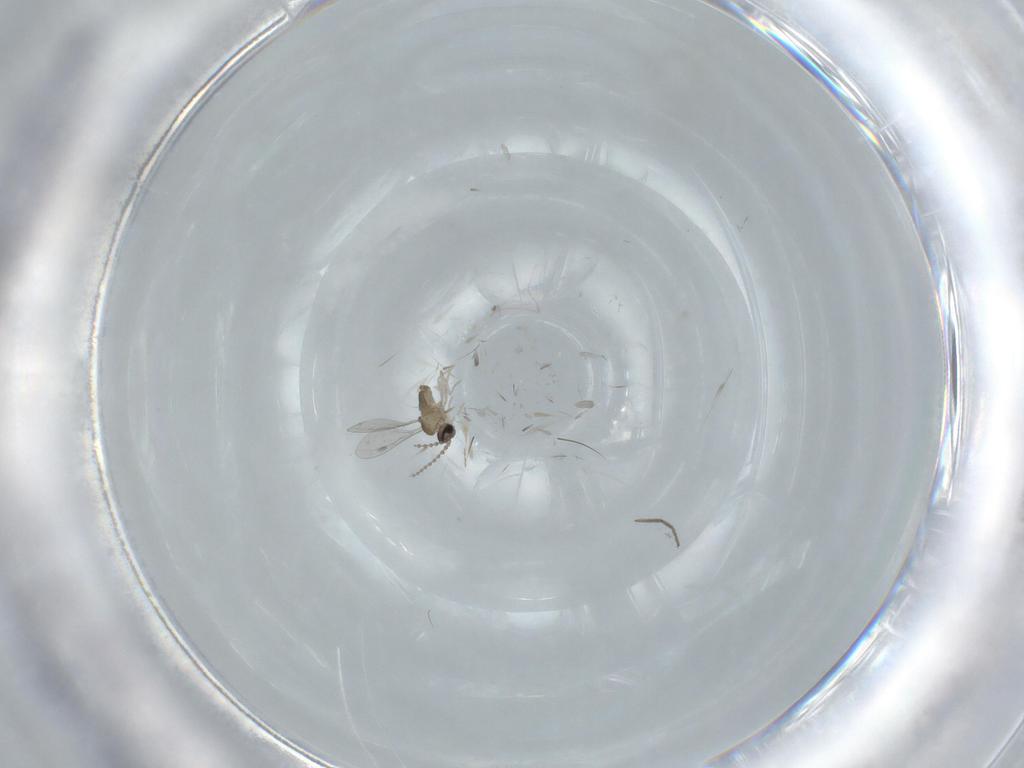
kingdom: Animalia
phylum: Arthropoda
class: Insecta
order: Diptera
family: Cecidomyiidae
